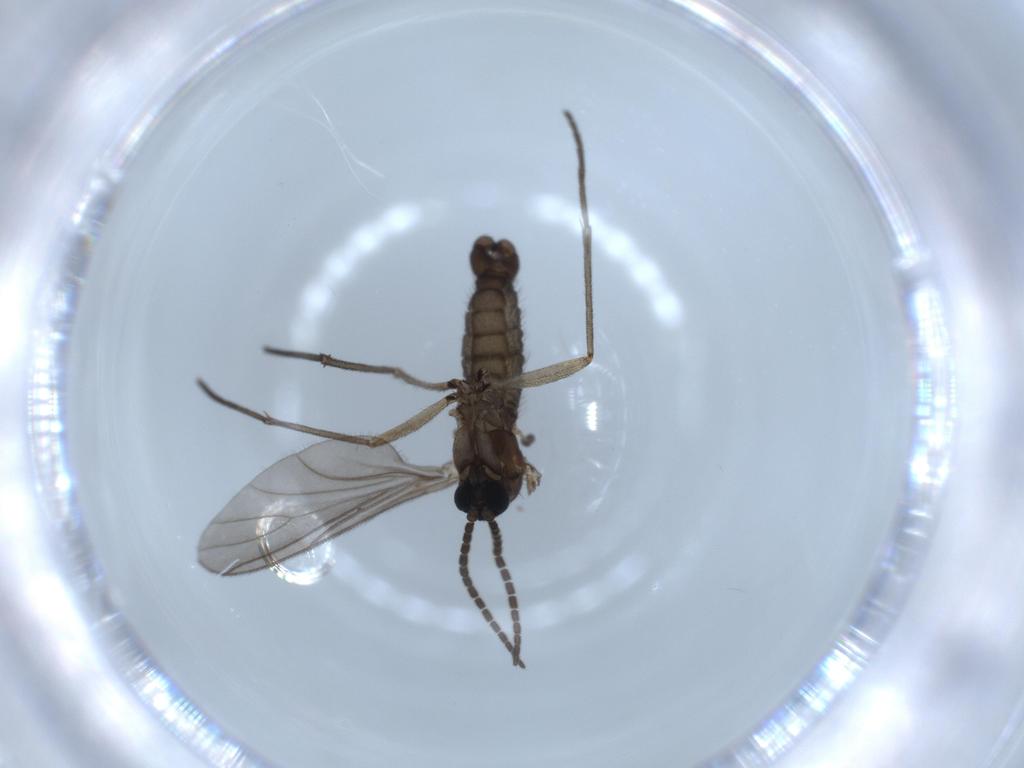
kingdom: Animalia
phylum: Arthropoda
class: Insecta
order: Diptera
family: Sciaridae
